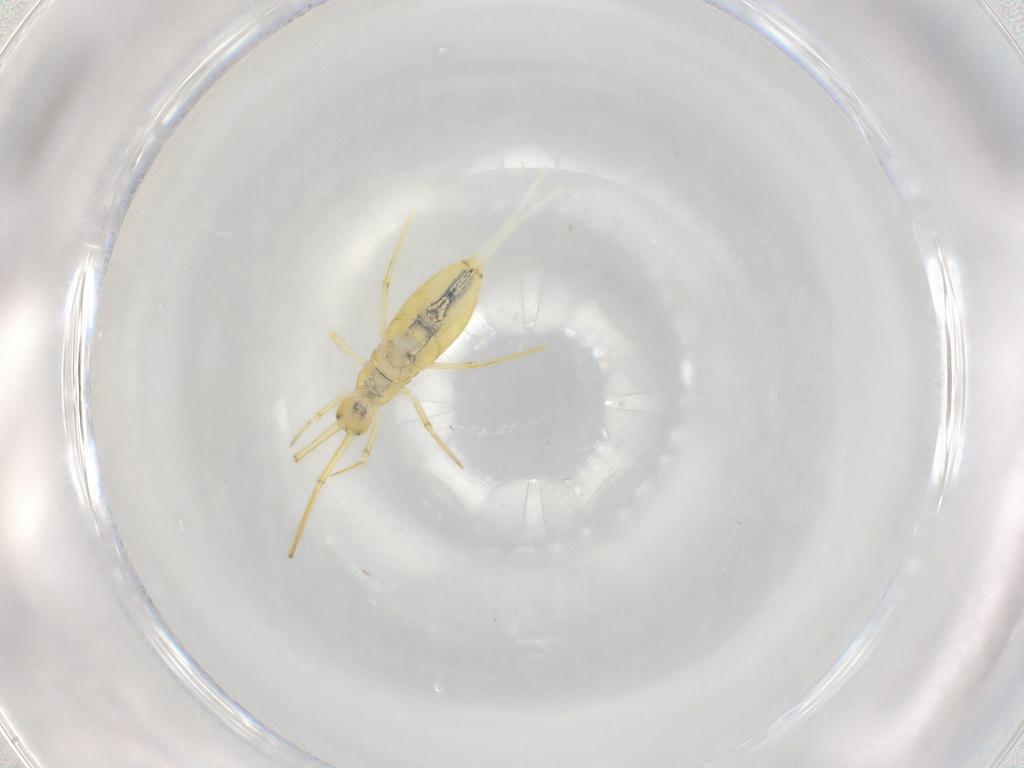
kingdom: Animalia
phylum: Arthropoda
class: Collembola
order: Entomobryomorpha
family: Paronellidae
